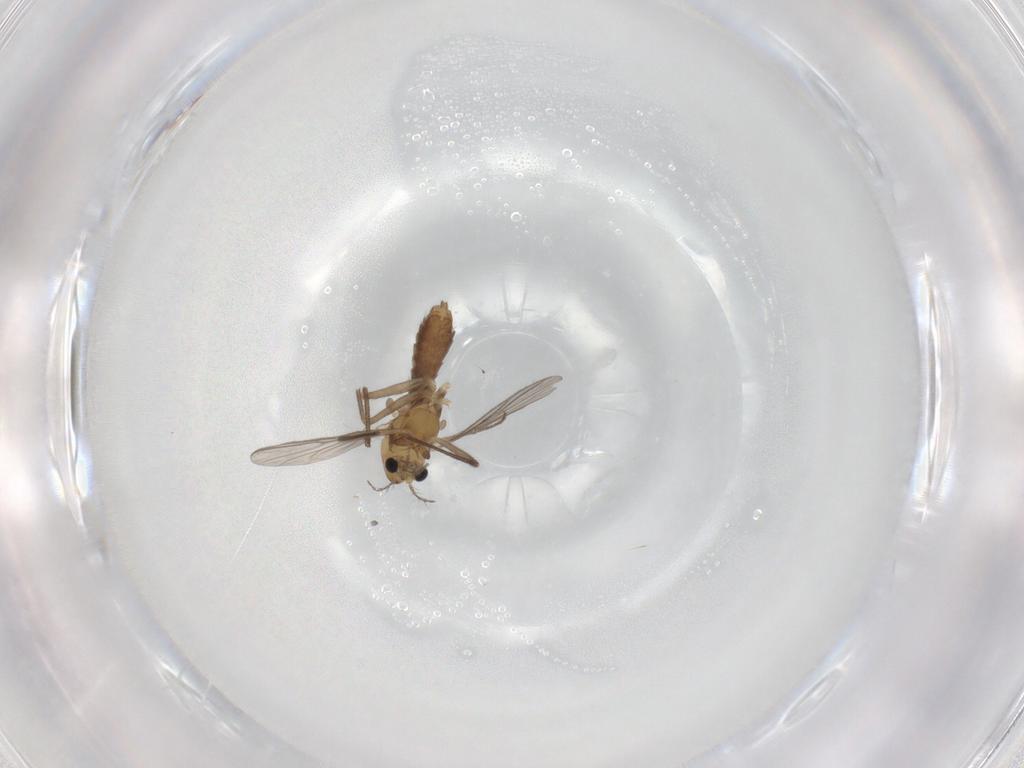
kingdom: Animalia
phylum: Arthropoda
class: Insecta
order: Diptera
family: Chironomidae
